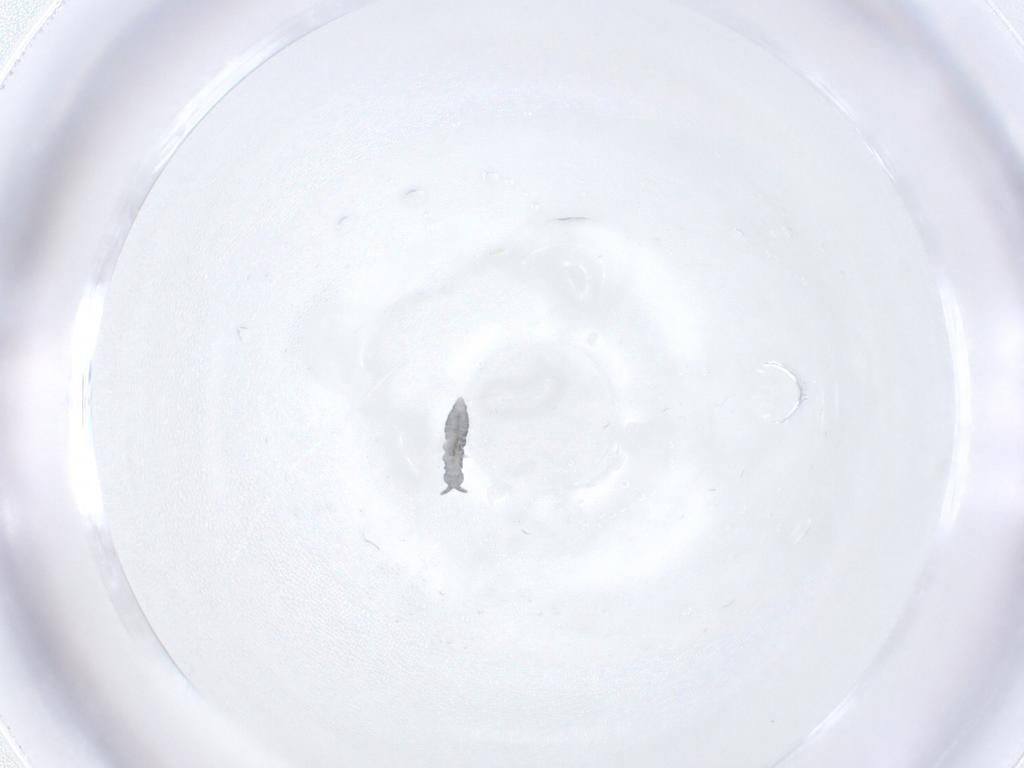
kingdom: Animalia
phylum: Arthropoda
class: Collembola
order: Poduromorpha
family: Hypogastruridae
